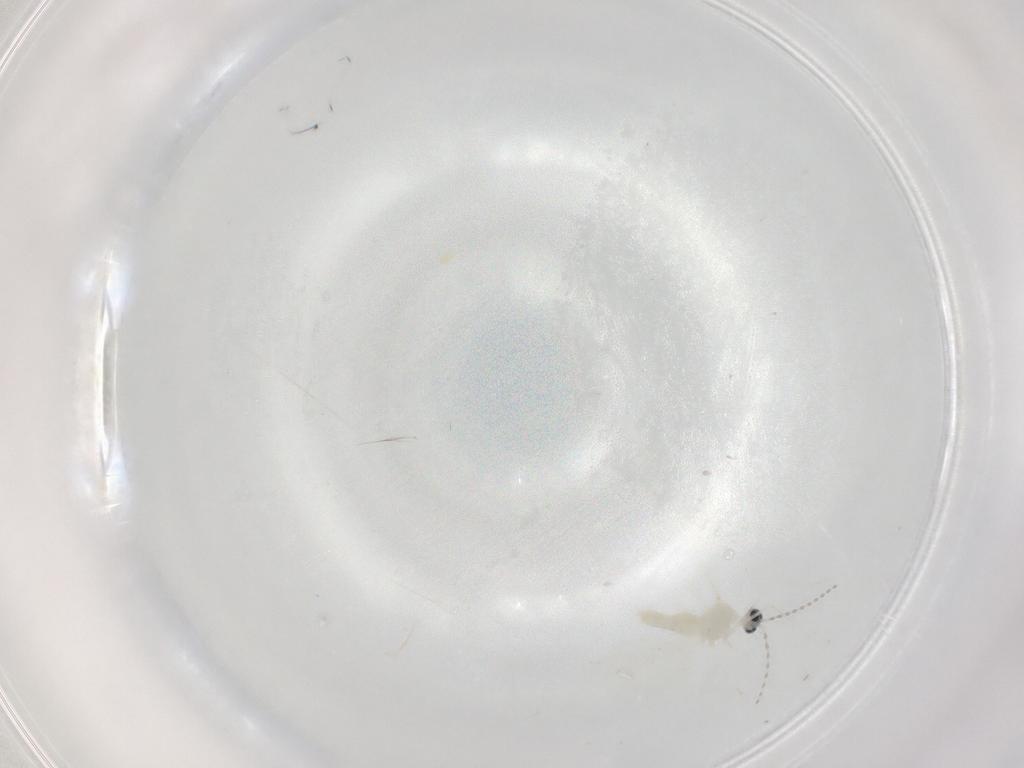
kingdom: Animalia
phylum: Arthropoda
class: Insecta
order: Diptera
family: Cecidomyiidae
